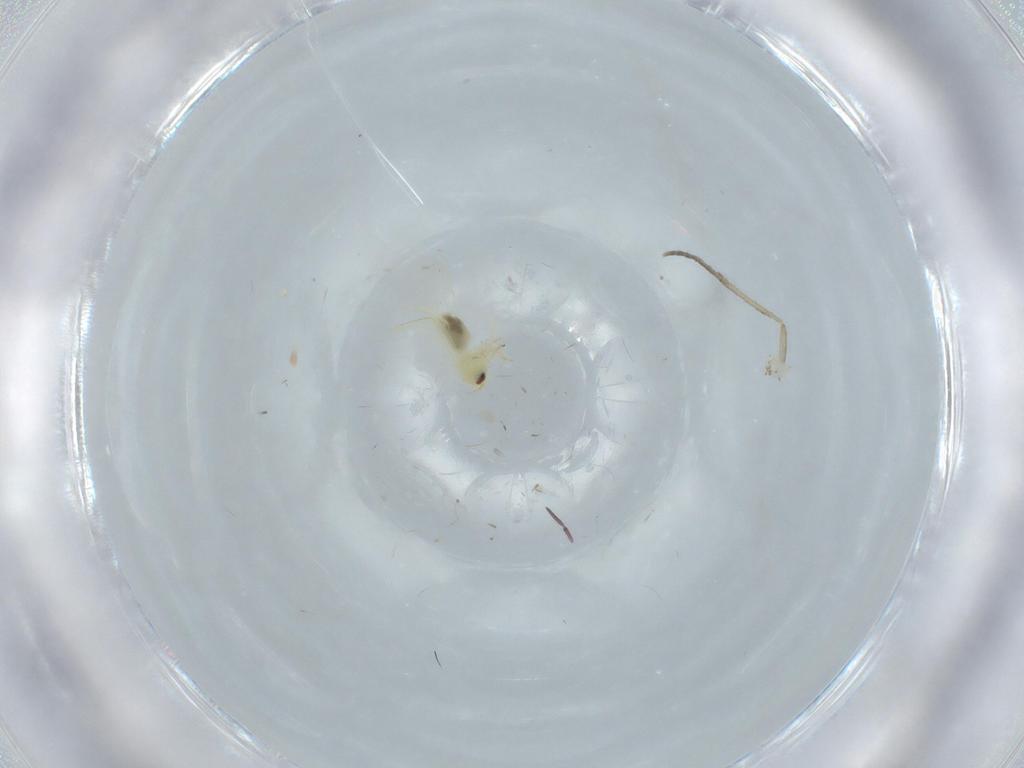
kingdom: Animalia
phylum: Arthropoda
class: Insecta
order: Hemiptera
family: Aleyrodidae
